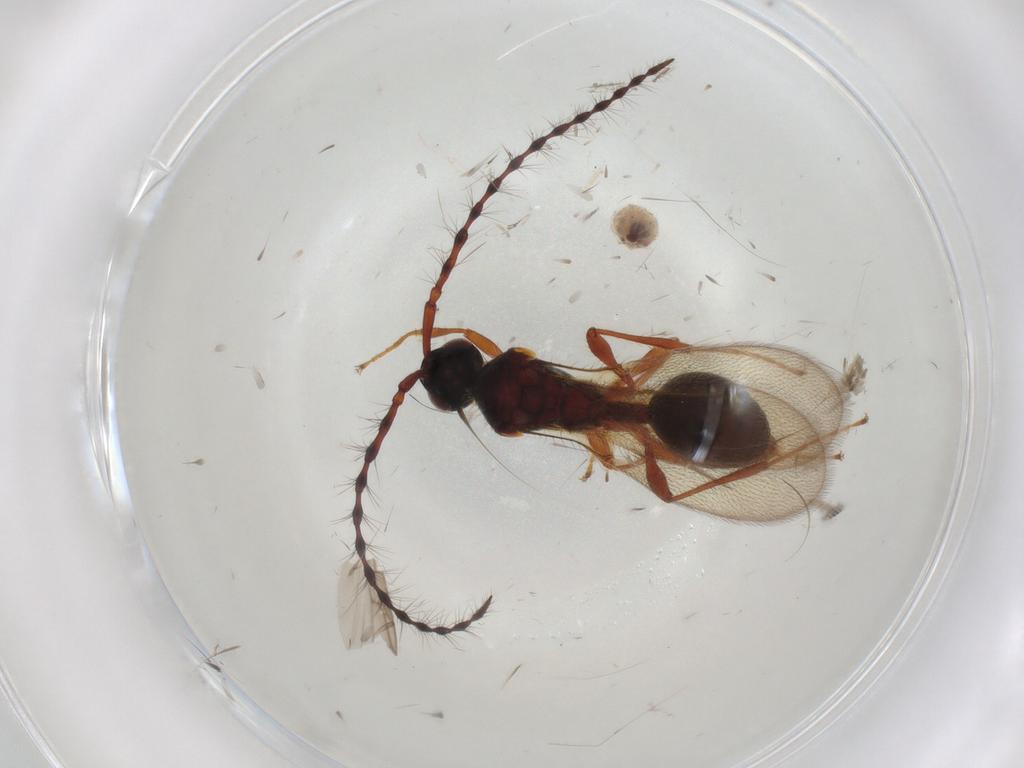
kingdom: Animalia
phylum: Arthropoda
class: Insecta
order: Hymenoptera
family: Diapriidae
